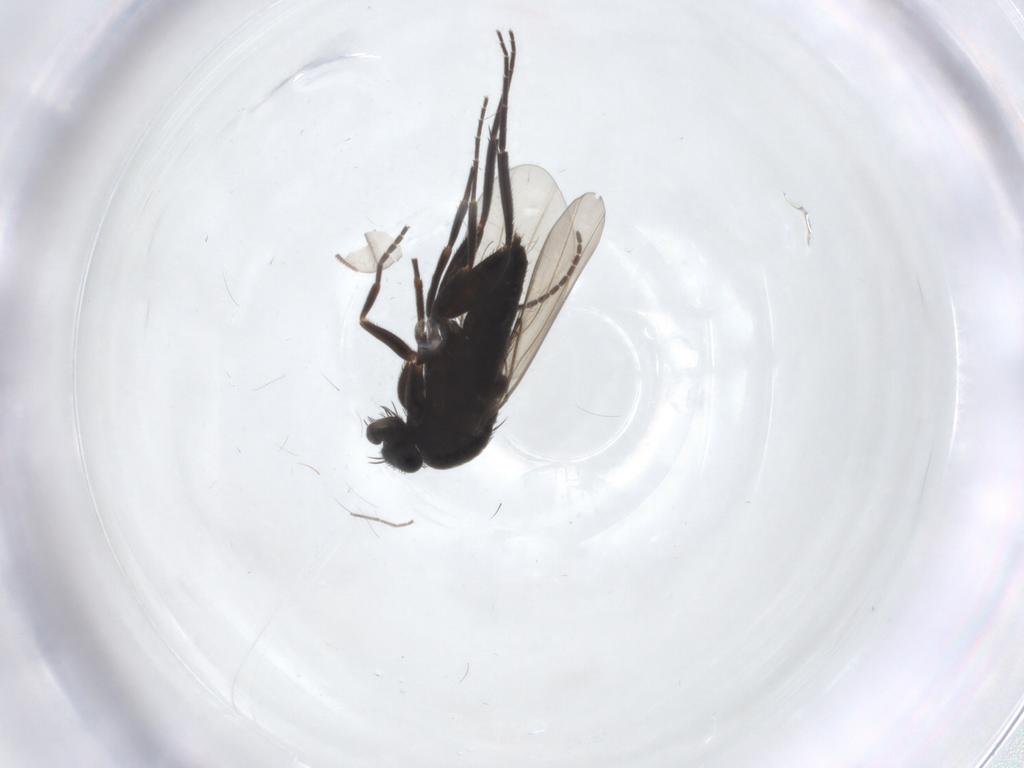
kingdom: Animalia
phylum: Arthropoda
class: Insecta
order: Diptera
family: Phoridae
